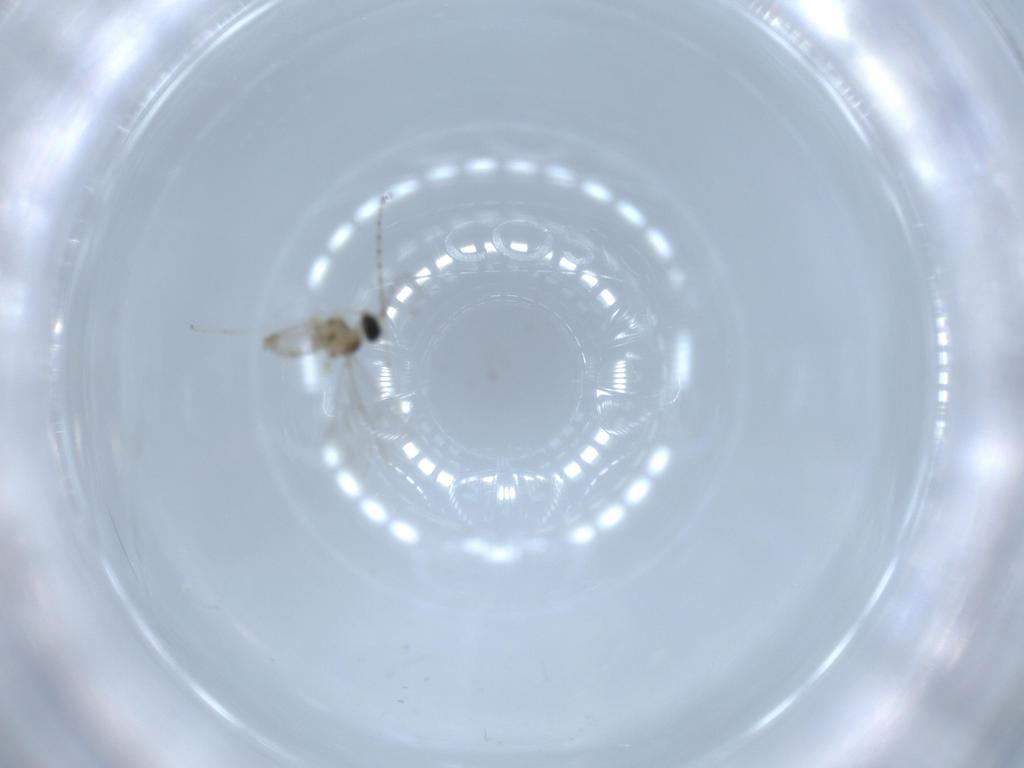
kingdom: Animalia
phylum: Arthropoda
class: Insecta
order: Diptera
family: Cecidomyiidae
